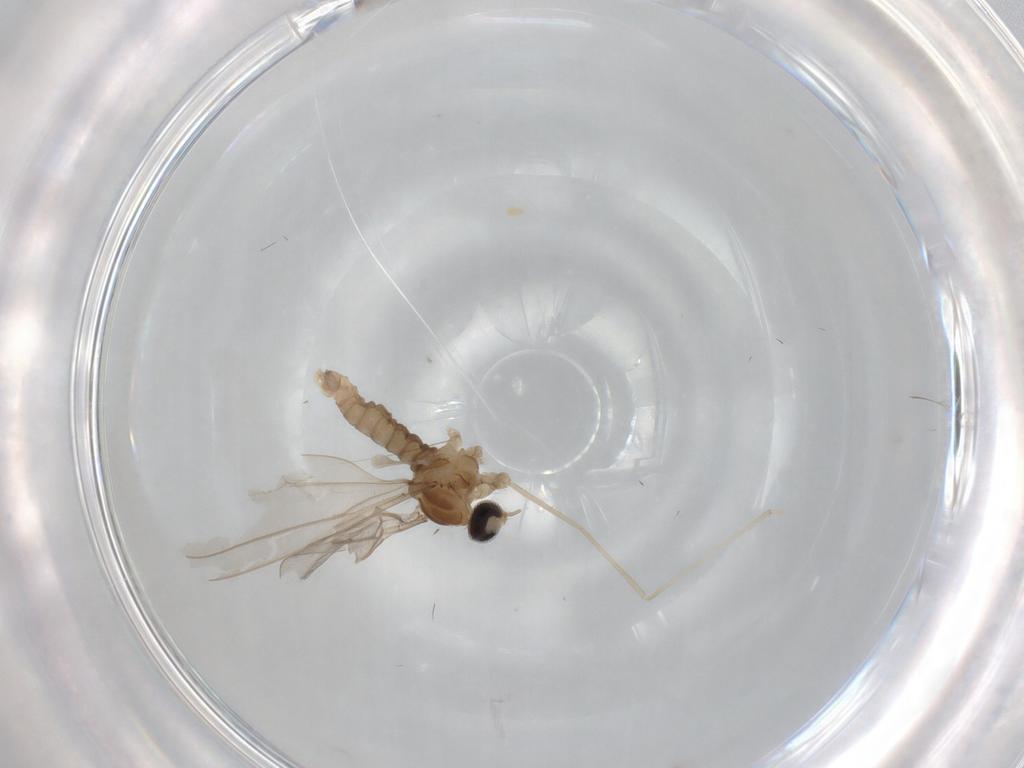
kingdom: Animalia
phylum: Arthropoda
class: Insecta
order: Diptera
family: Cecidomyiidae
